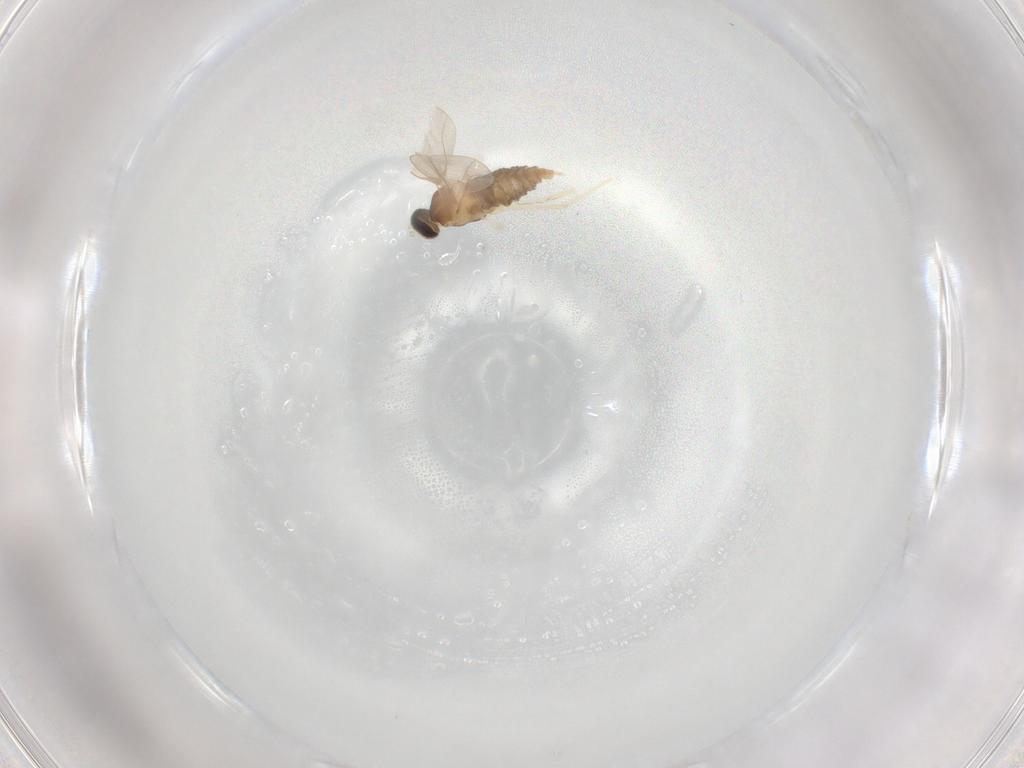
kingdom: Animalia
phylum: Arthropoda
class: Insecta
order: Diptera
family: Cecidomyiidae
